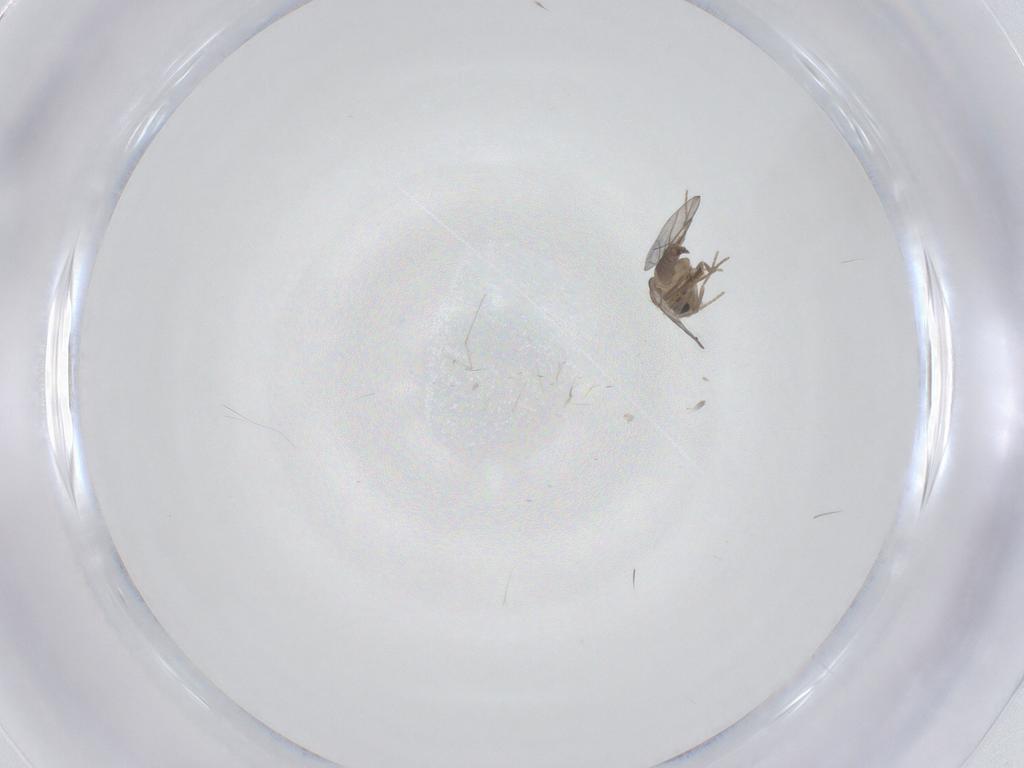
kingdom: Animalia
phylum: Arthropoda
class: Insecta
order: Diptera
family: Cecidomyiidae
